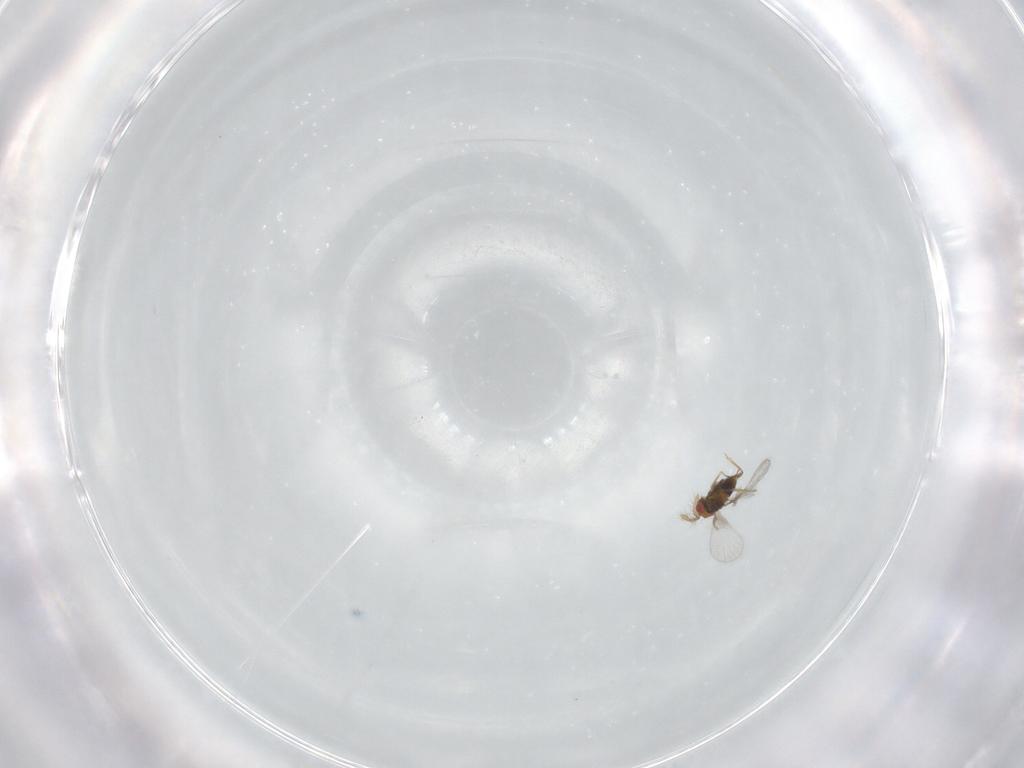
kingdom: Animalia
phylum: Arthropoda
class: Insecta
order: Hymenoptera
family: Trichogrammatidae
